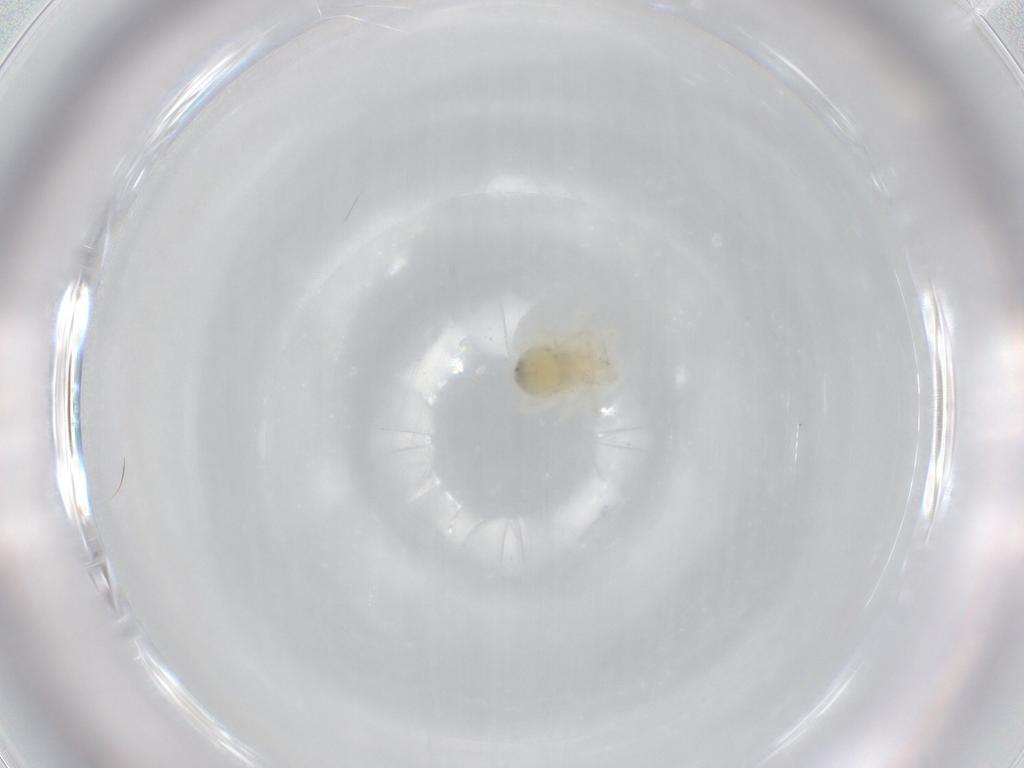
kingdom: Animalia
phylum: Arthropoda
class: Arachnida
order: Trombidiformes
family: Anystidae
